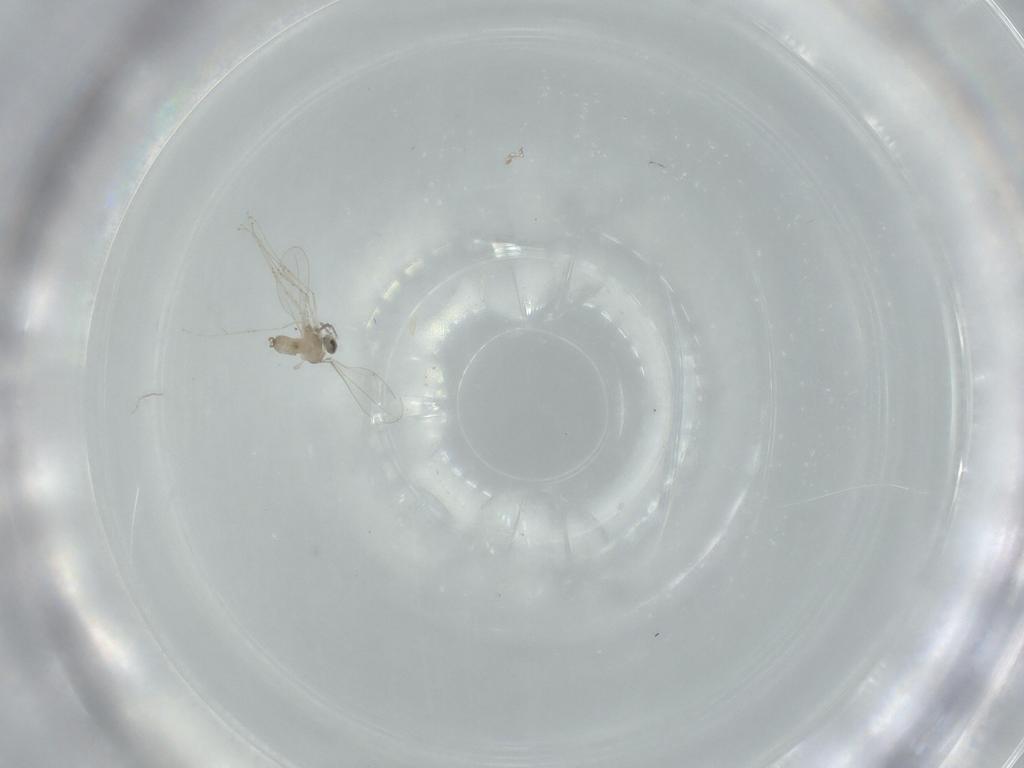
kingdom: Animalia
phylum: Arthropoda
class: Insecta
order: Diptera
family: Cecidomyiidae
